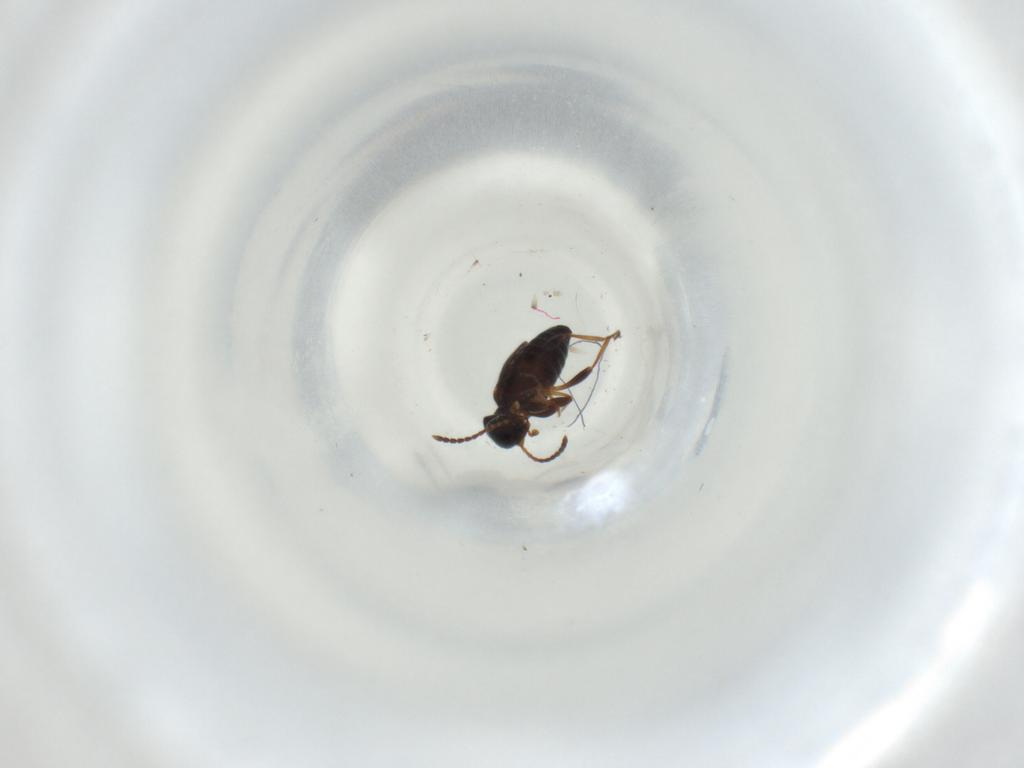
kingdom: Animalia
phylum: Arthropoda
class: Insecta
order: Coleoptera
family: Anthicidae
